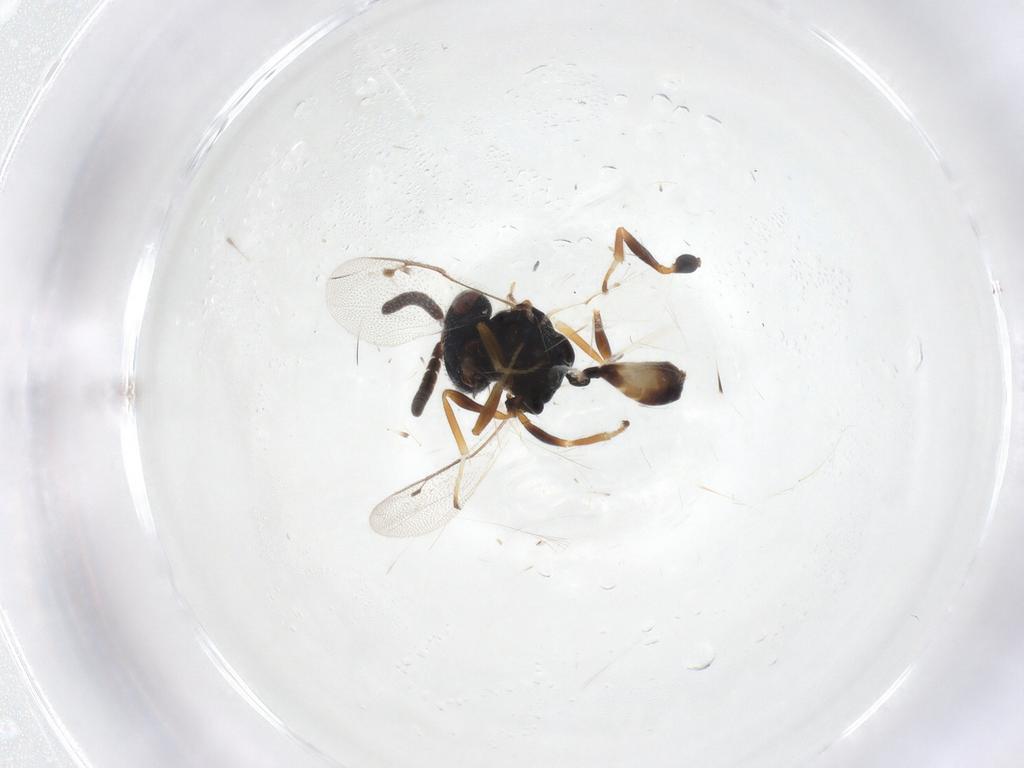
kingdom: Animalia
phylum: Arthropoda
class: Insecta
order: Hymenoptera
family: Pteromalidae
